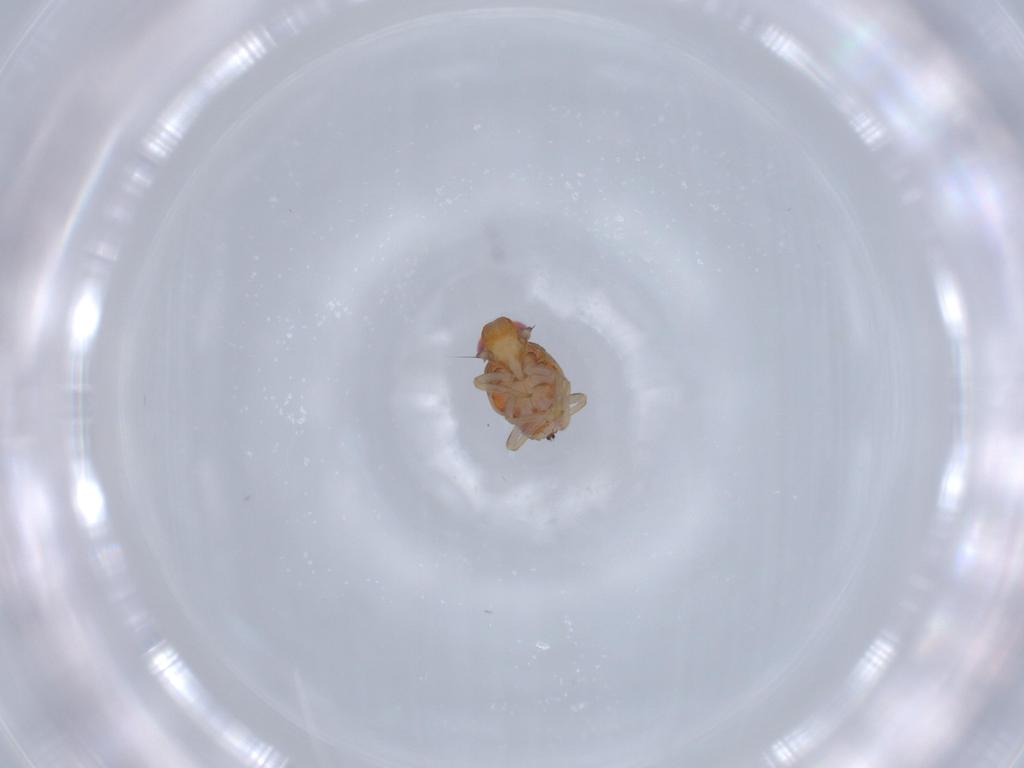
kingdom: Animalia
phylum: Arthropoda
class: Insecta
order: Hemiptera
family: Issidae
